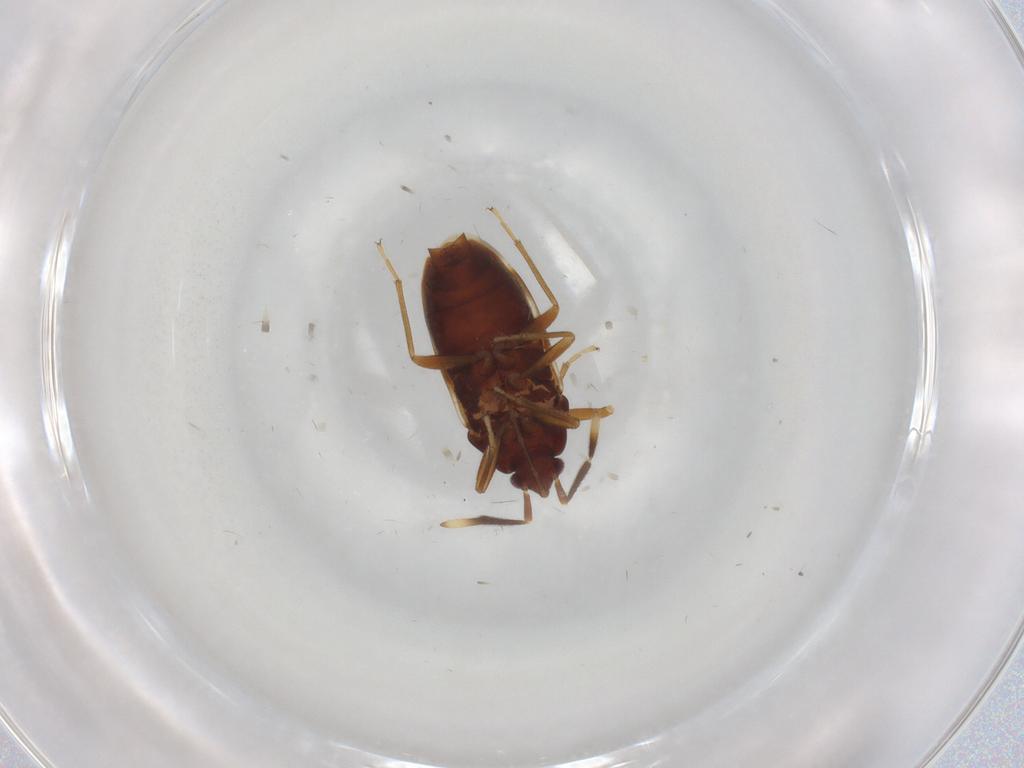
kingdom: Animalia
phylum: Arthropoda
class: Insecta
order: Hemiptera
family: Rhyparochromidae
